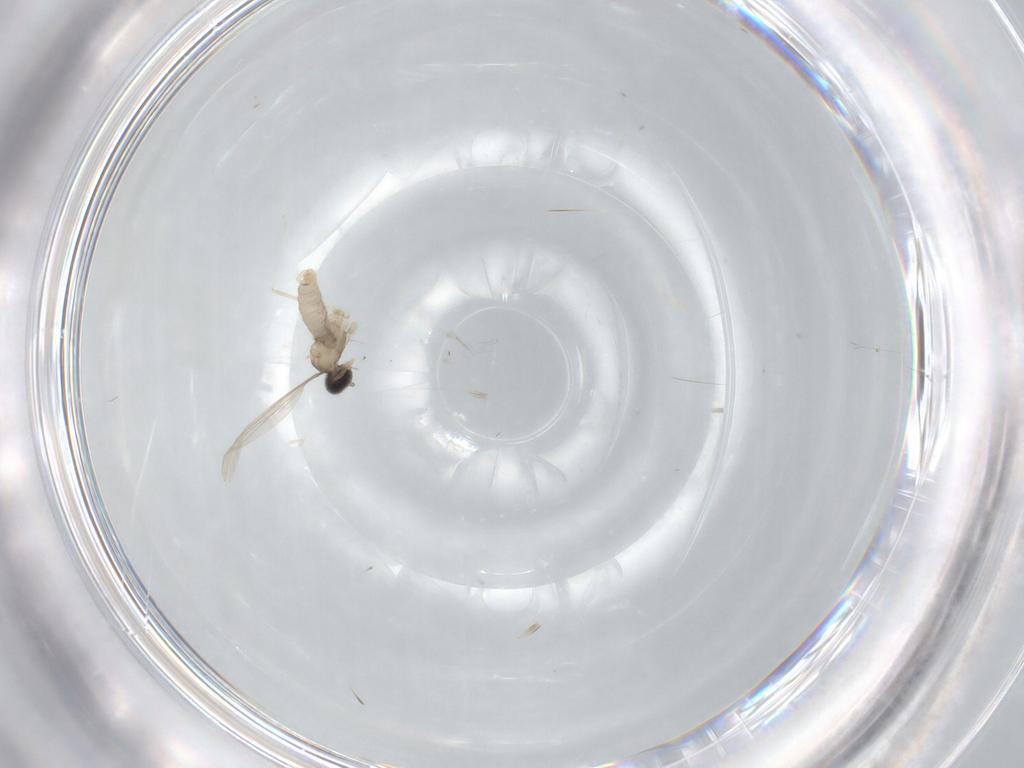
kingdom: Animalia
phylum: Arthropoda
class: Insecta
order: Diptera
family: Cecidomyiidae
